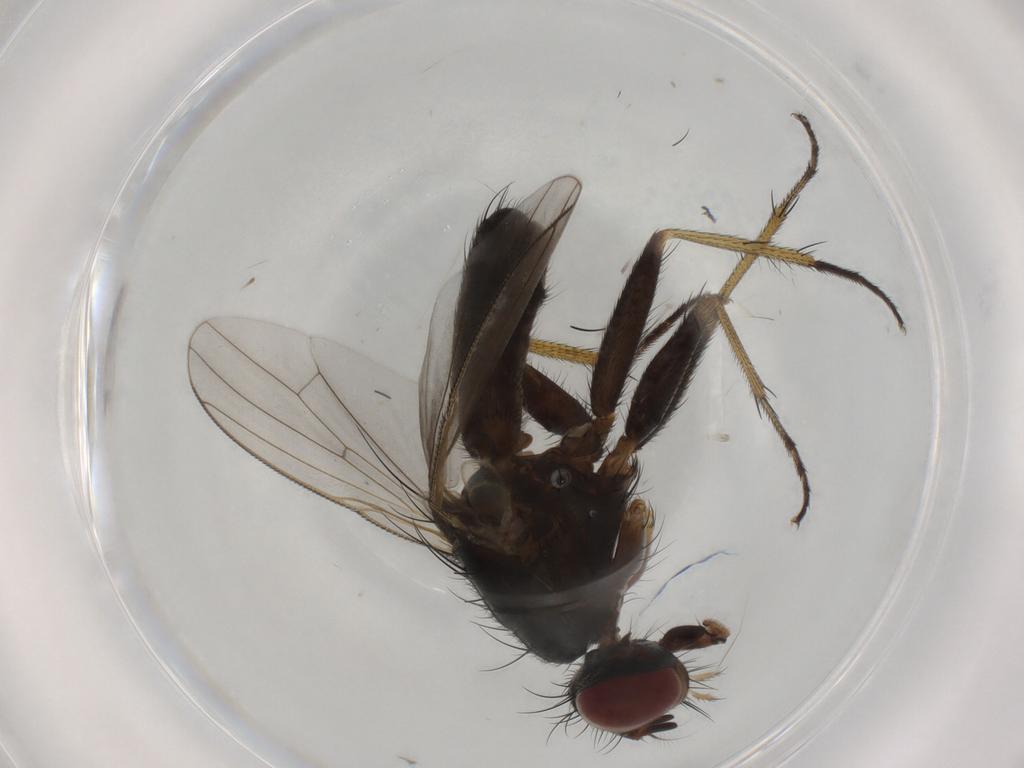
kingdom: Animalia
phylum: Arthropoda
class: Insecta
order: Diptera
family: Muscidae
